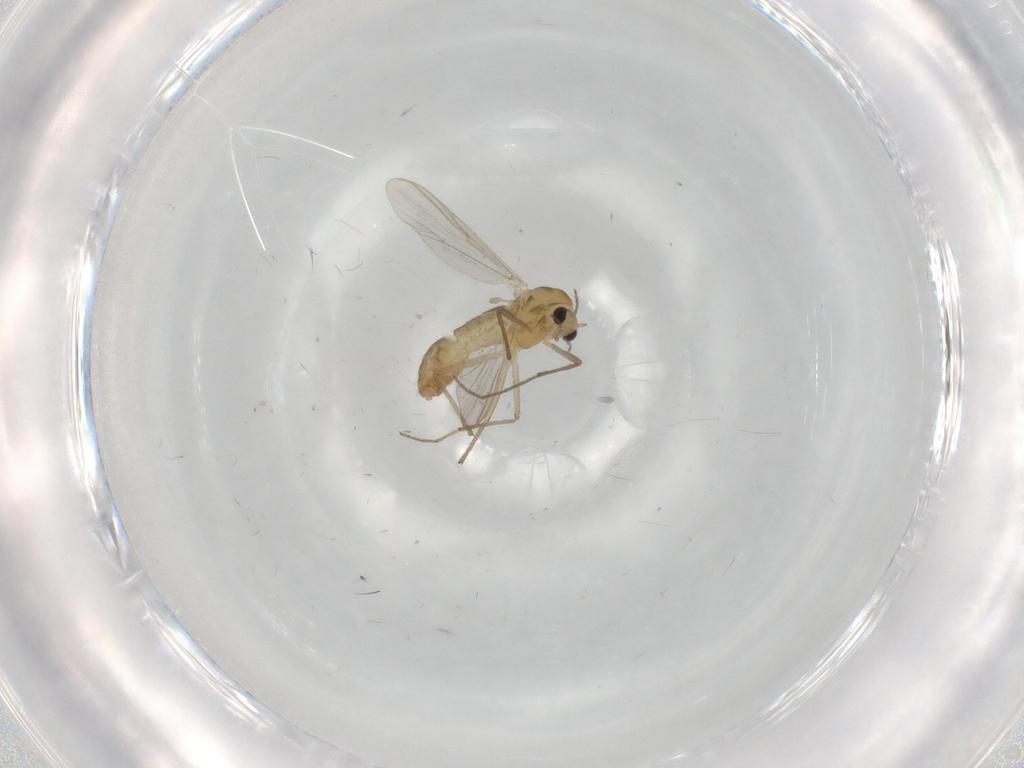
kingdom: Animalia
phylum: Arthropoda
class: Insecta
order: Diptera
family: Chironomidae
